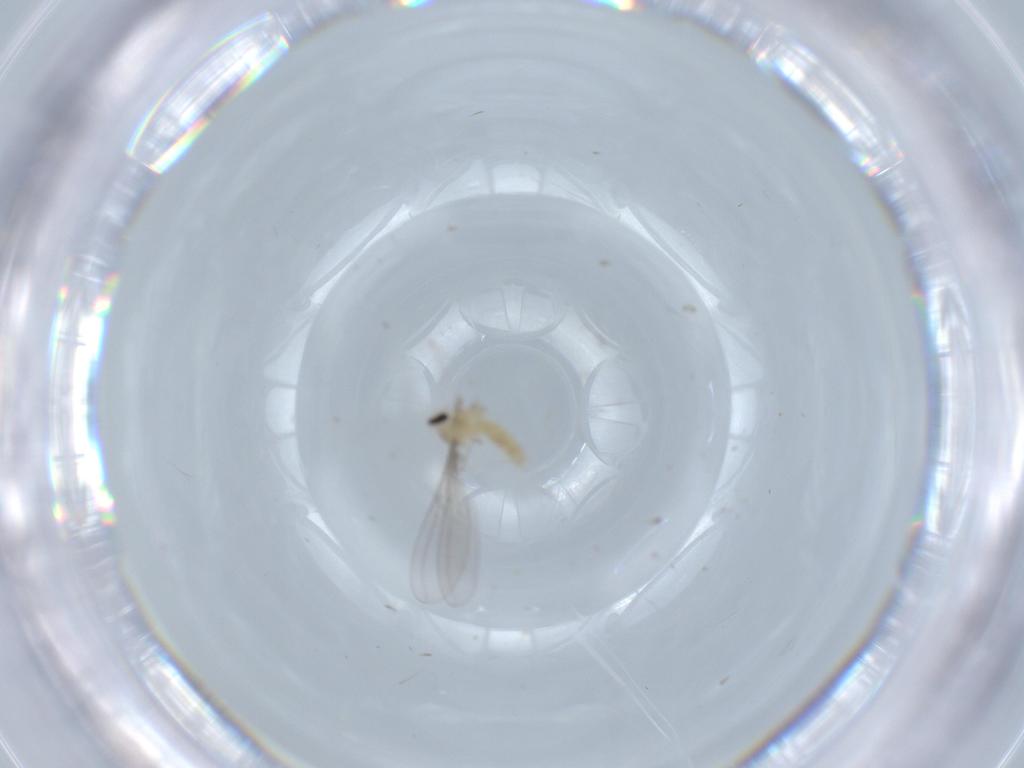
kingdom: Animalia
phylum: Arthropoda
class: Insecta
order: Diptera
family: Cecidomyiidae
